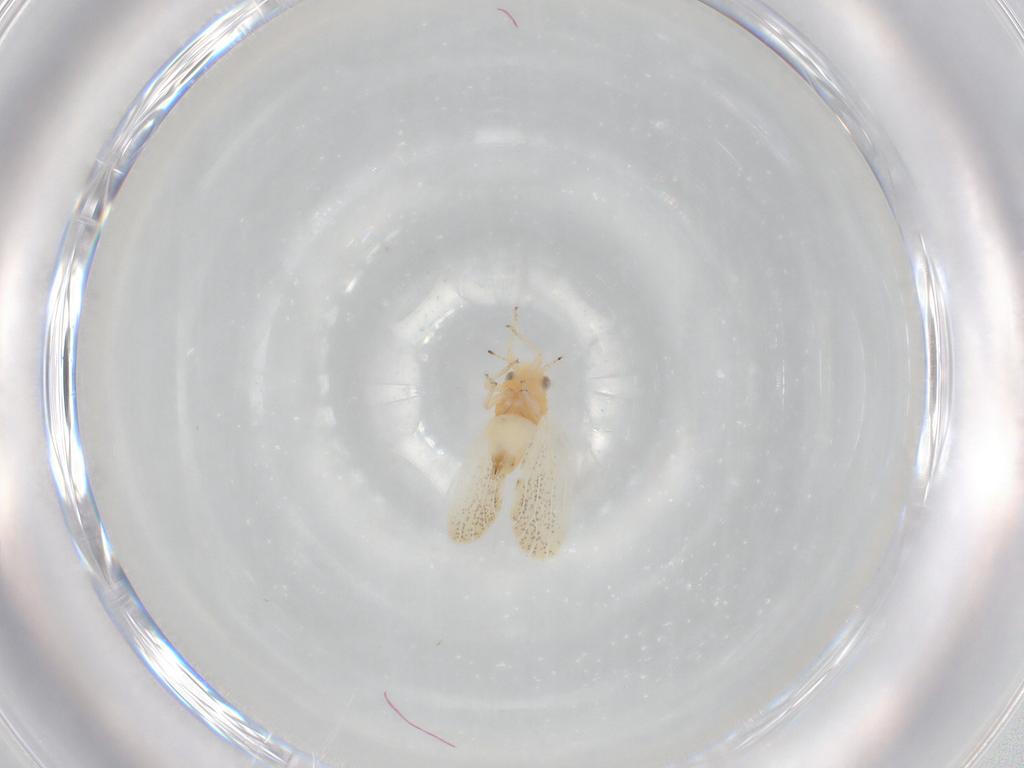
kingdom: Animalia
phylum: Arthropoda
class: Insecta
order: Hemiptera
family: Psylloidea_incertae_sedis
